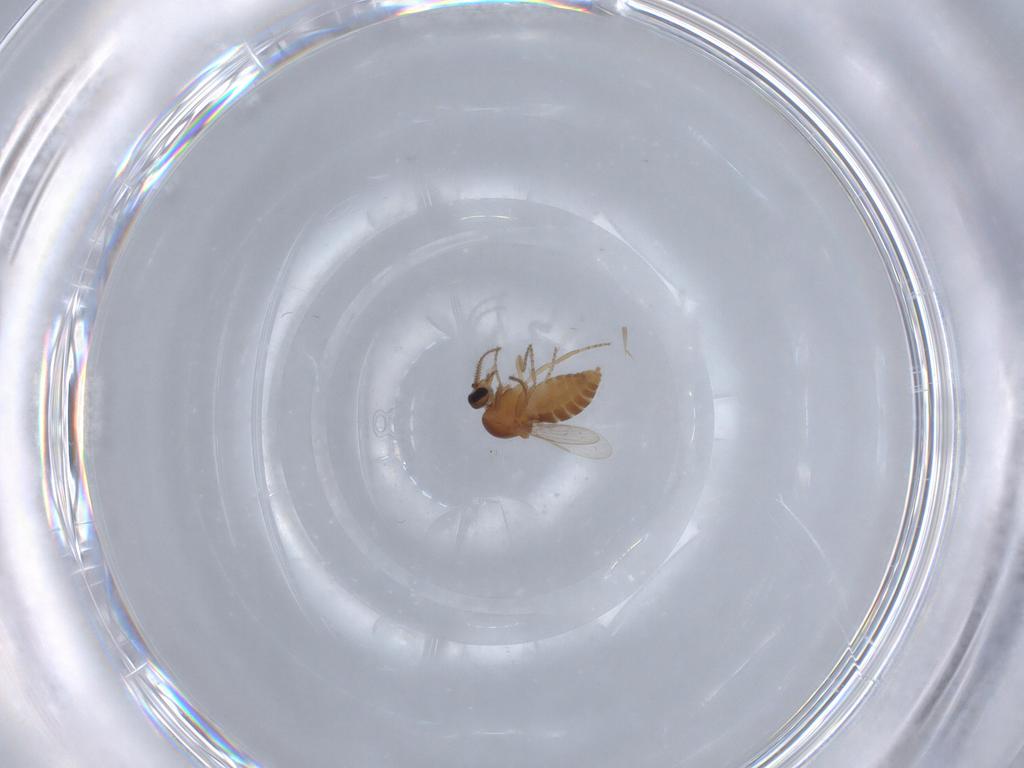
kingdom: Animalia
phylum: Arthropoda
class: Insecta
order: Diptera
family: Ceratopogonidae
